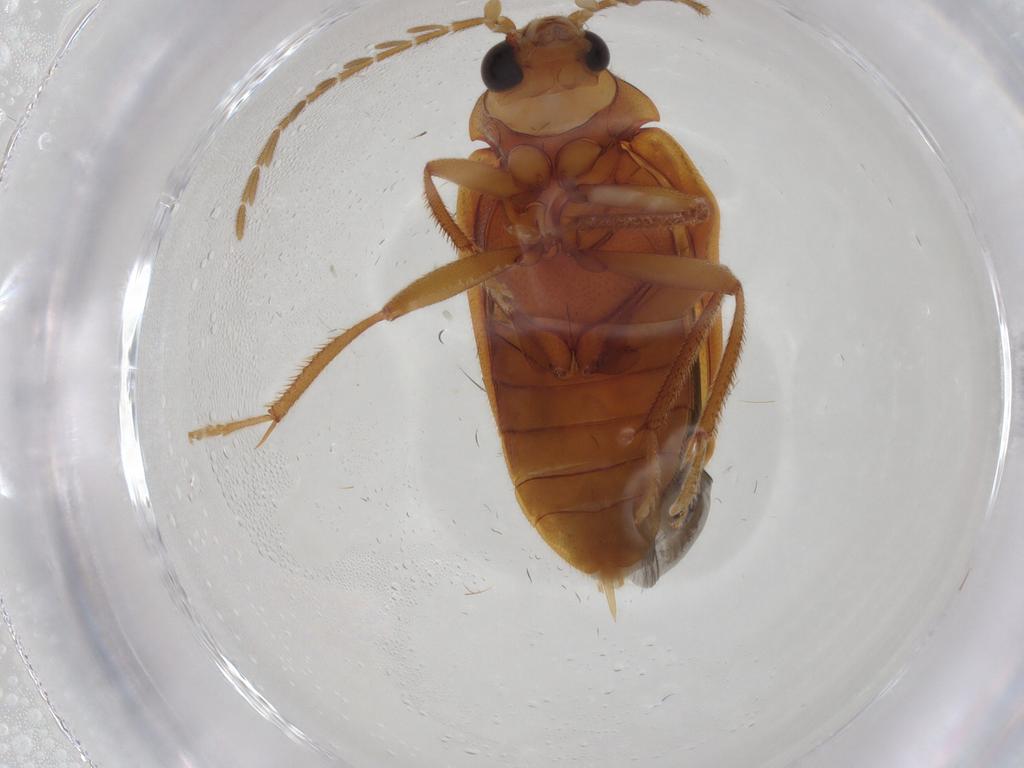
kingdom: Animalia
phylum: Arthropoda
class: Insecta
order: Coleoptera
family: Ptilodactylidae
